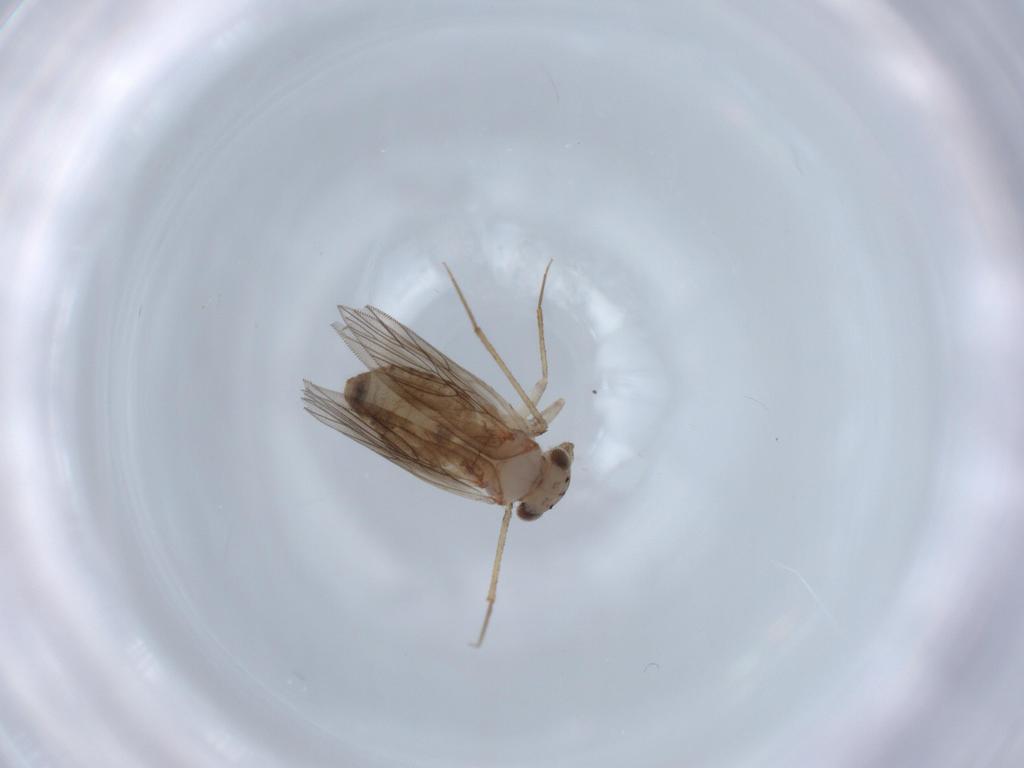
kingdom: Animalia
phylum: Arthropoda
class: Insecta
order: Psocodea
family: Lepidopsocidae
